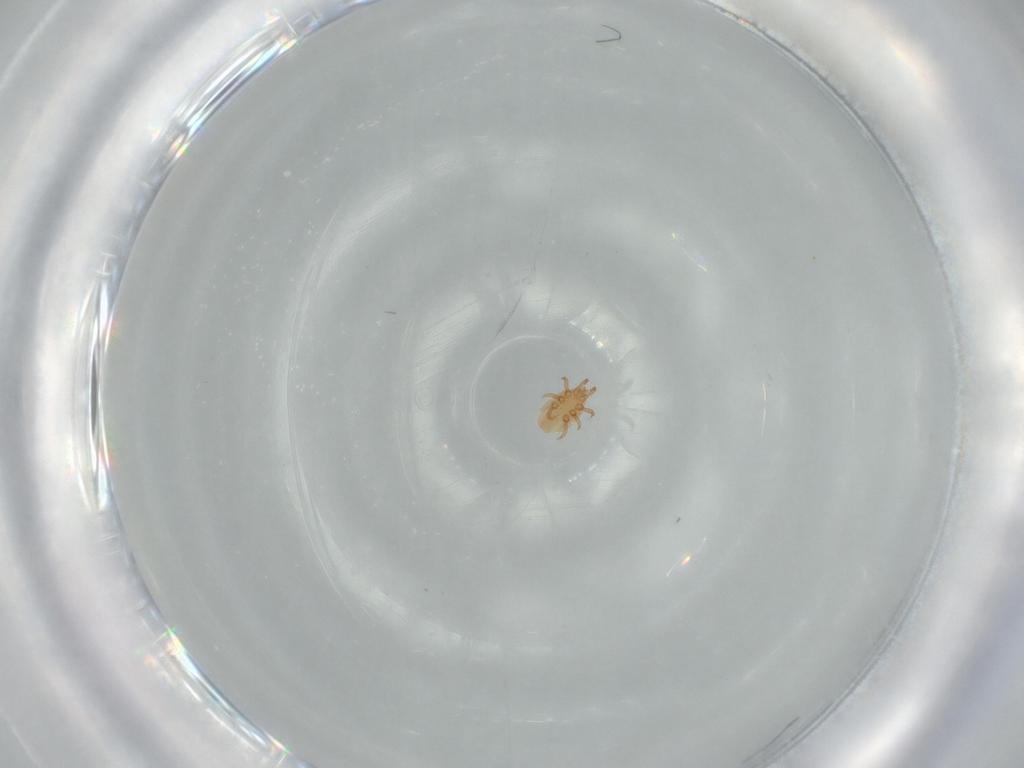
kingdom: Animalia
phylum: Arthropoda
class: Arachnida
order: Mesostigmata
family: Dinychidae
